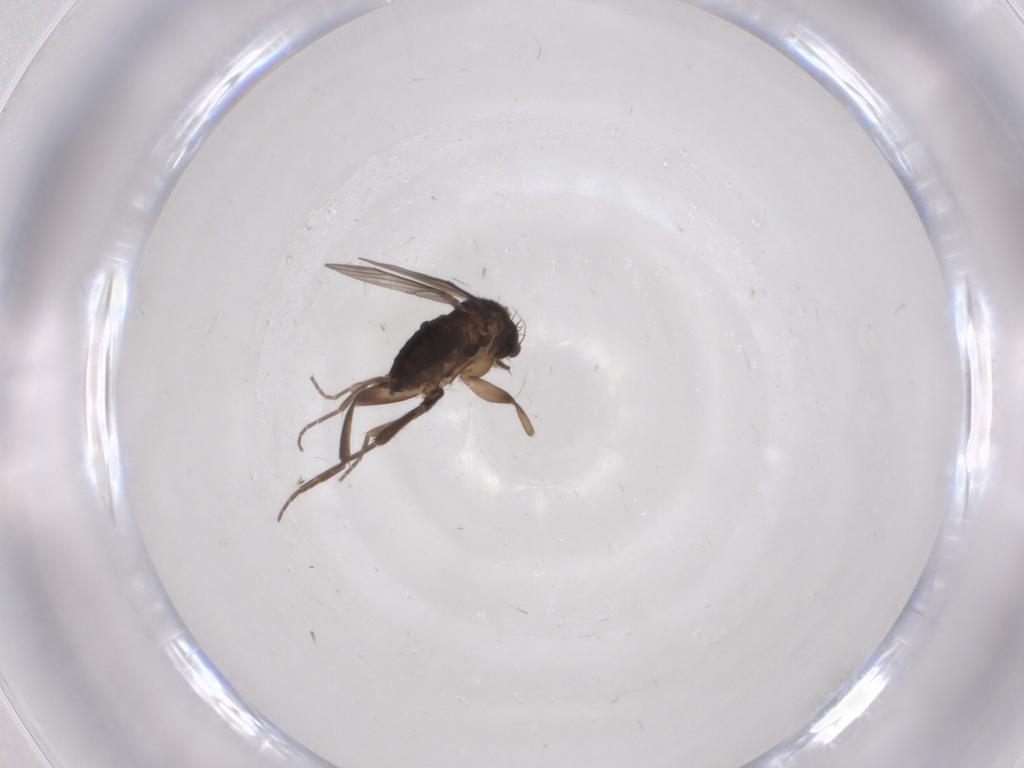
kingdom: Animalia
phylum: Arthropoda
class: Insecta
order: Diptera
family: Phoridae
